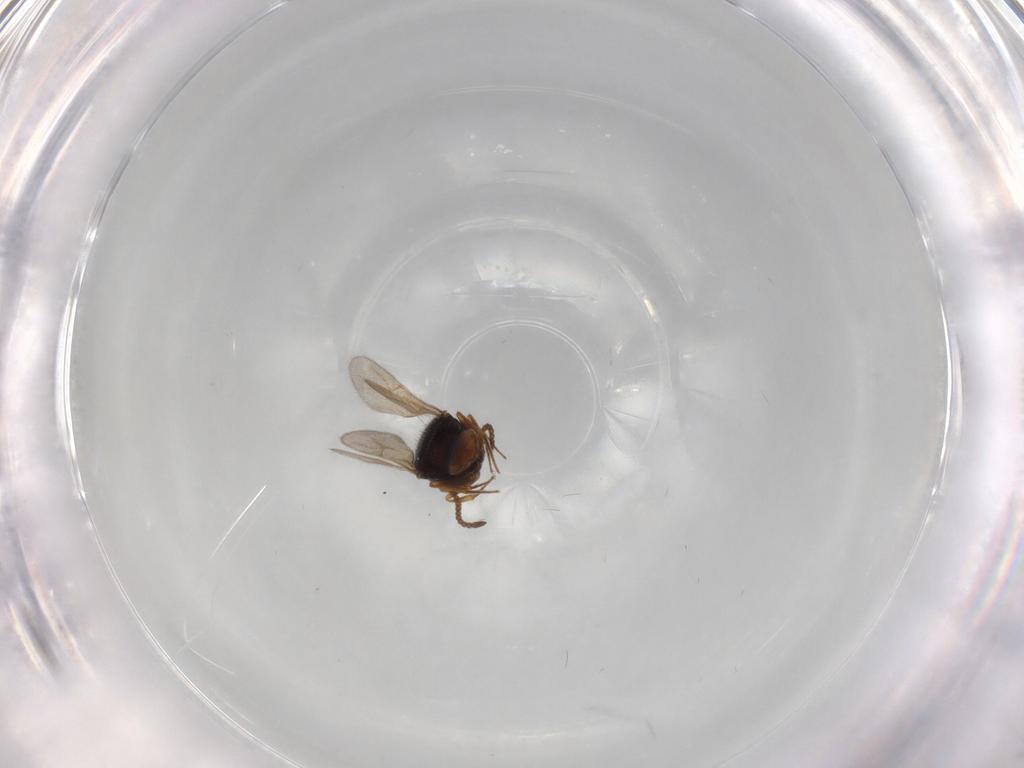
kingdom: Animalia
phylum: Arthropoda
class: Insecta
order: Hymenoptera
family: Scelionidae
